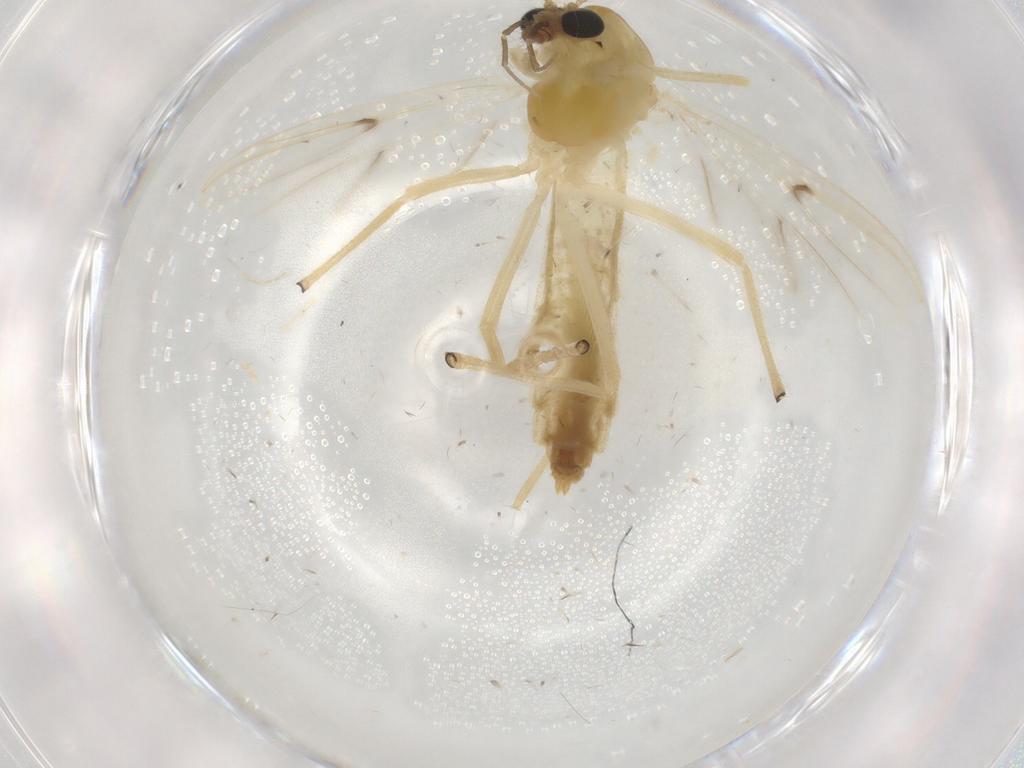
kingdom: Animalia
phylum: Arthropoda
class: Insecta
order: Diptera
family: Chironomidae
